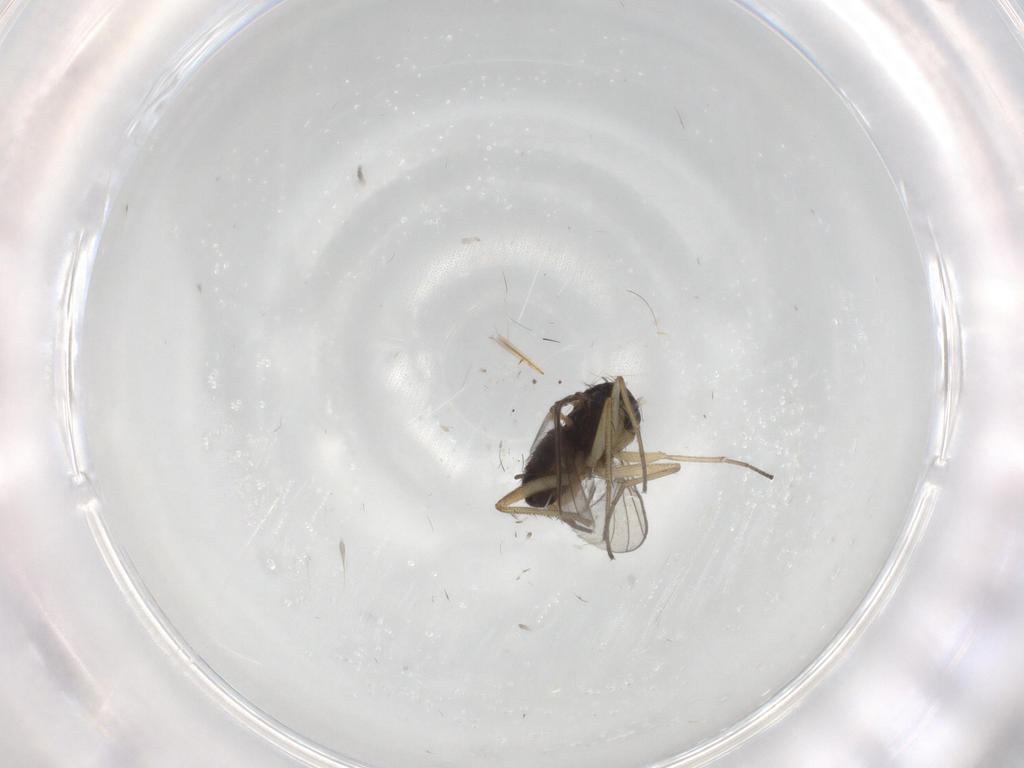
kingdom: Animalia
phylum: Arthropoda
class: Insecta
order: Diptera
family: Dolichopodidae
